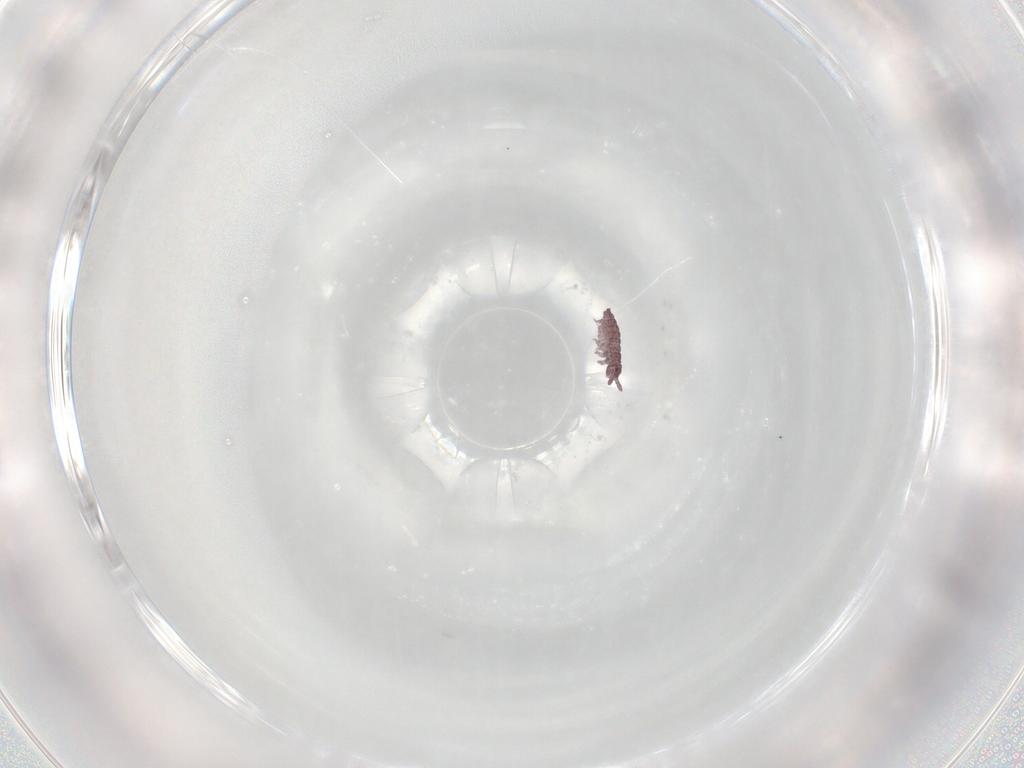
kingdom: Animalia
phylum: Arthropoda
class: Collembola
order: Poduromorpha
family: Hypogastruridae
